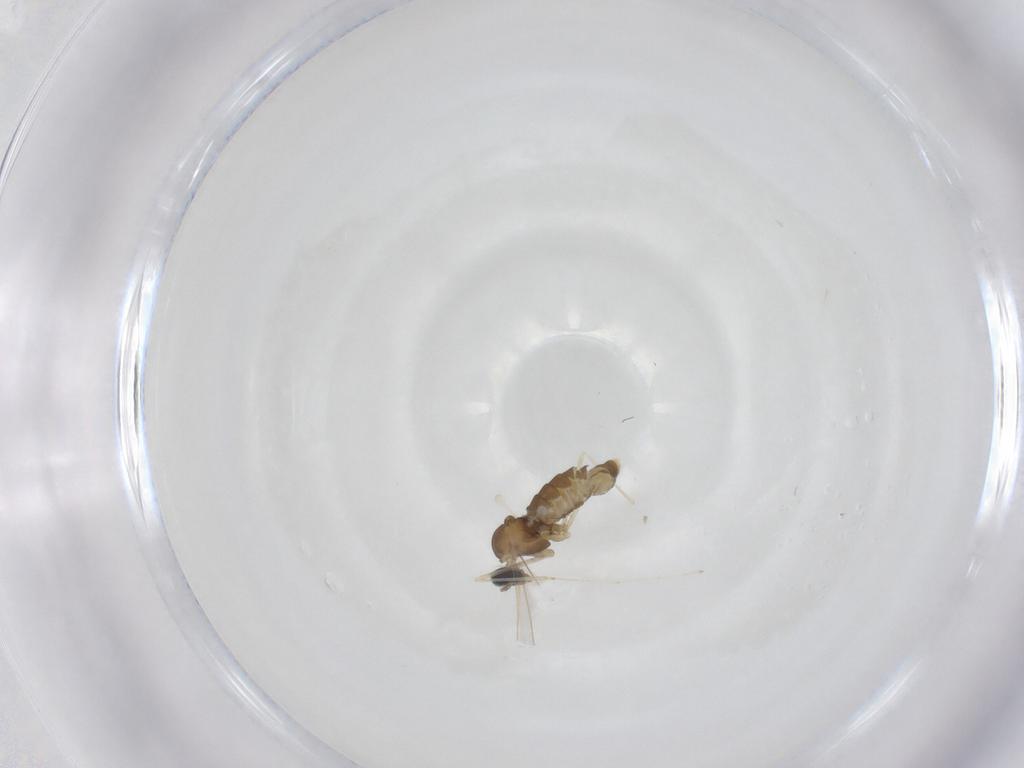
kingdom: Animalia
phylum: Arthropoda
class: Insecta
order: Diptera
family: Cecidomyiidae
